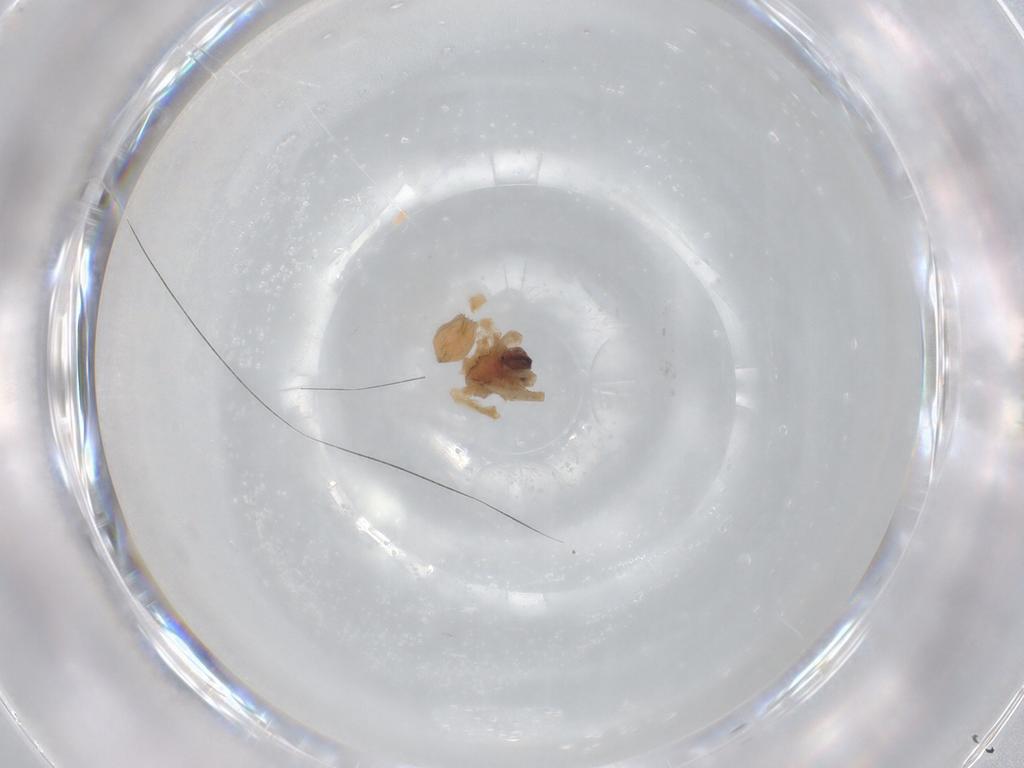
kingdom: Animalia
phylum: Arthropoda
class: Arachnida
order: Araneae
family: Lycosidae
